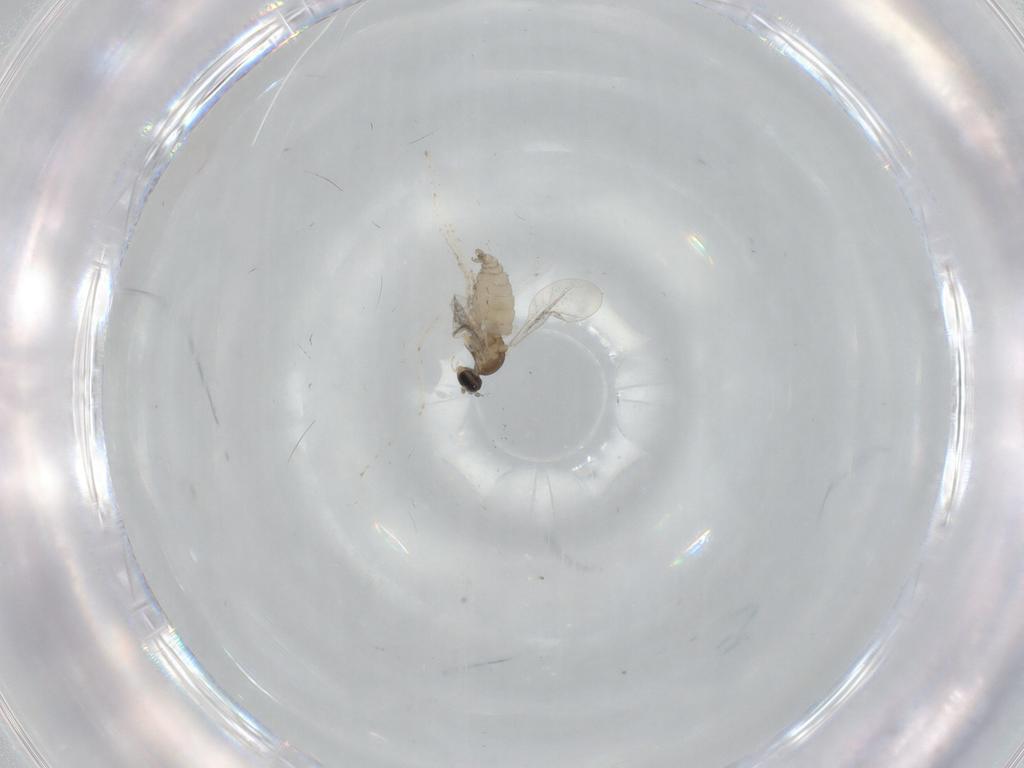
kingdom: Animalia
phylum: Arthropoda
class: Insecta
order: Diptera
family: Cecidomyiidae
